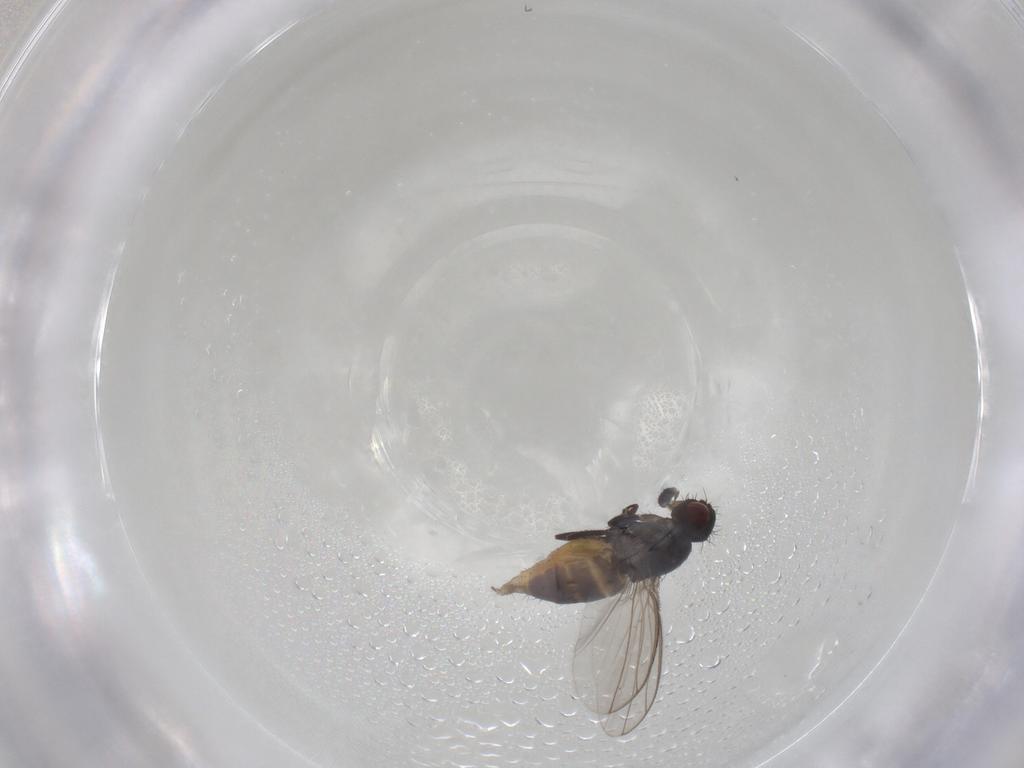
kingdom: Animalia
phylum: Arthropoda
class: Insecta
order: Diptera
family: Carnidae
